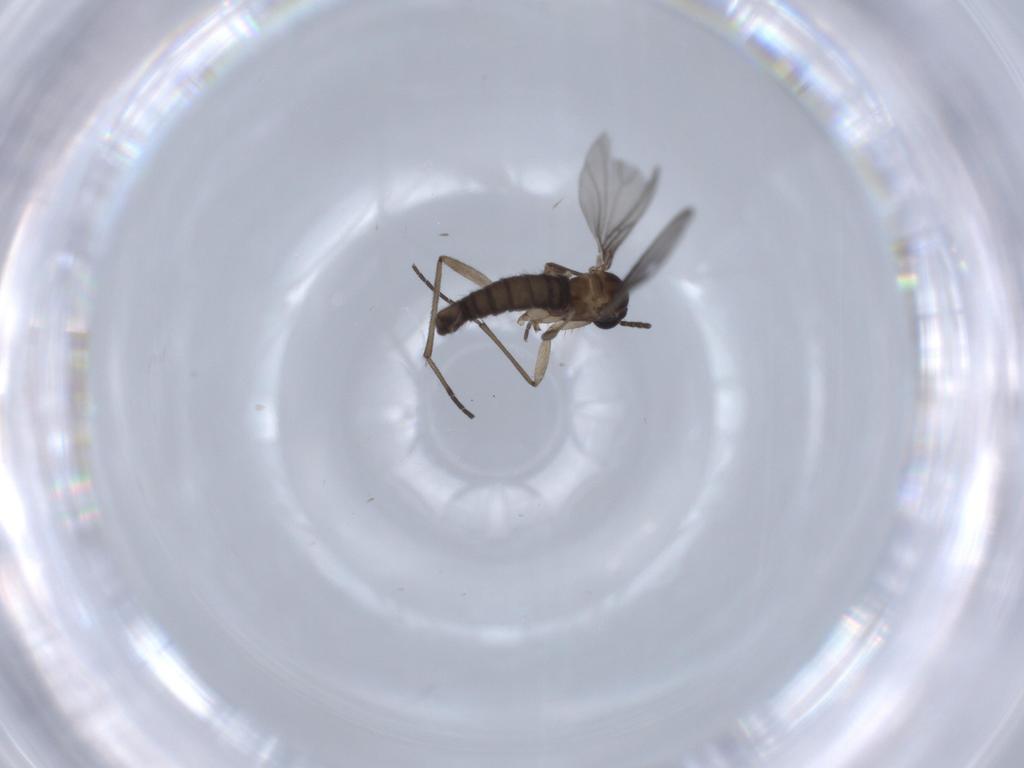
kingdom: Animalia
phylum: Arthropoda
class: Insecta
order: Diptera
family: Sciaridae
